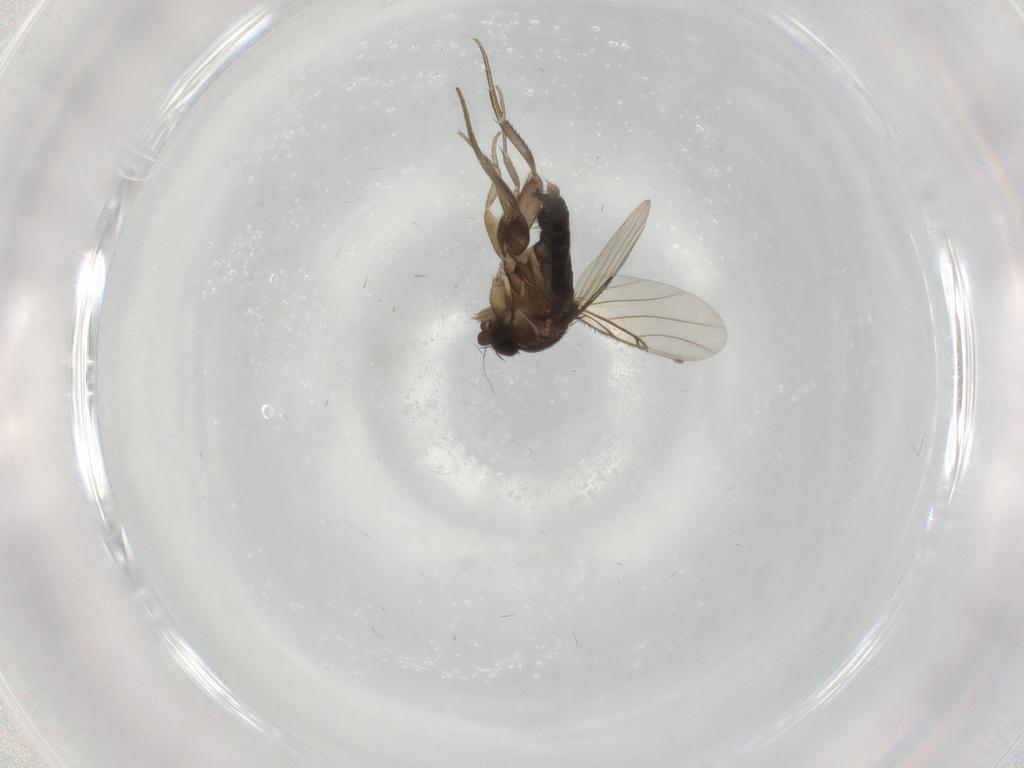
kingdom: Animalia
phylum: Arthropoda
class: Insecta
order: Diptera
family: Phoridae
